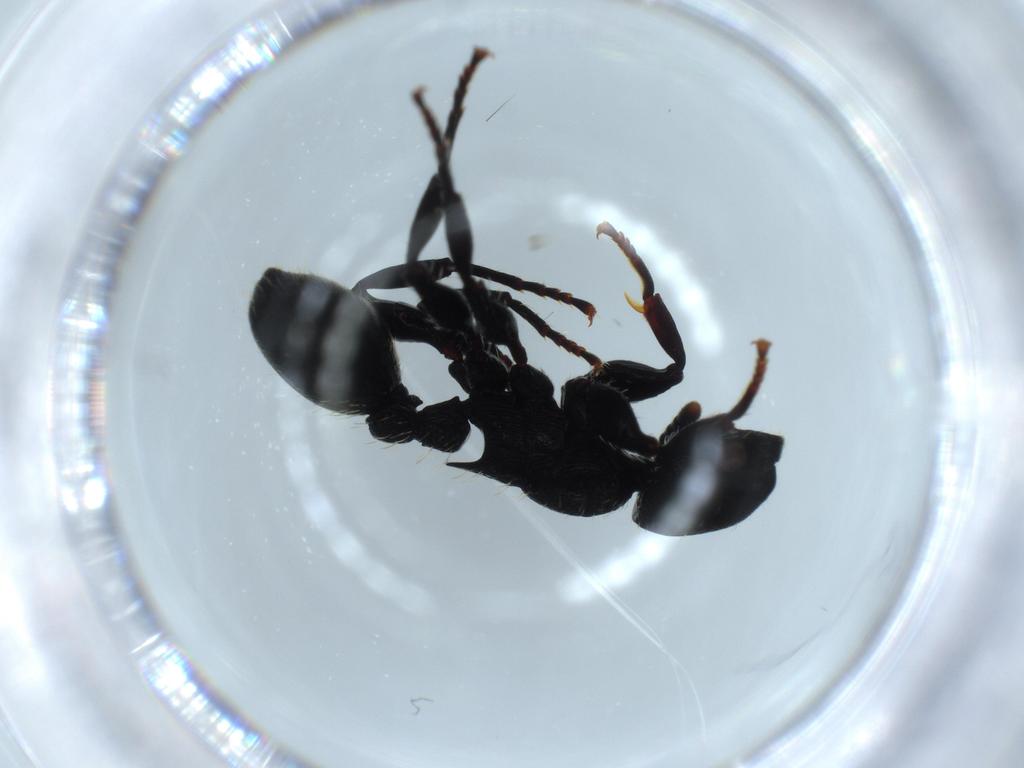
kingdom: Animalia
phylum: Arthropoda
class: Insecta
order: Hymenoptera
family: Formicidae
